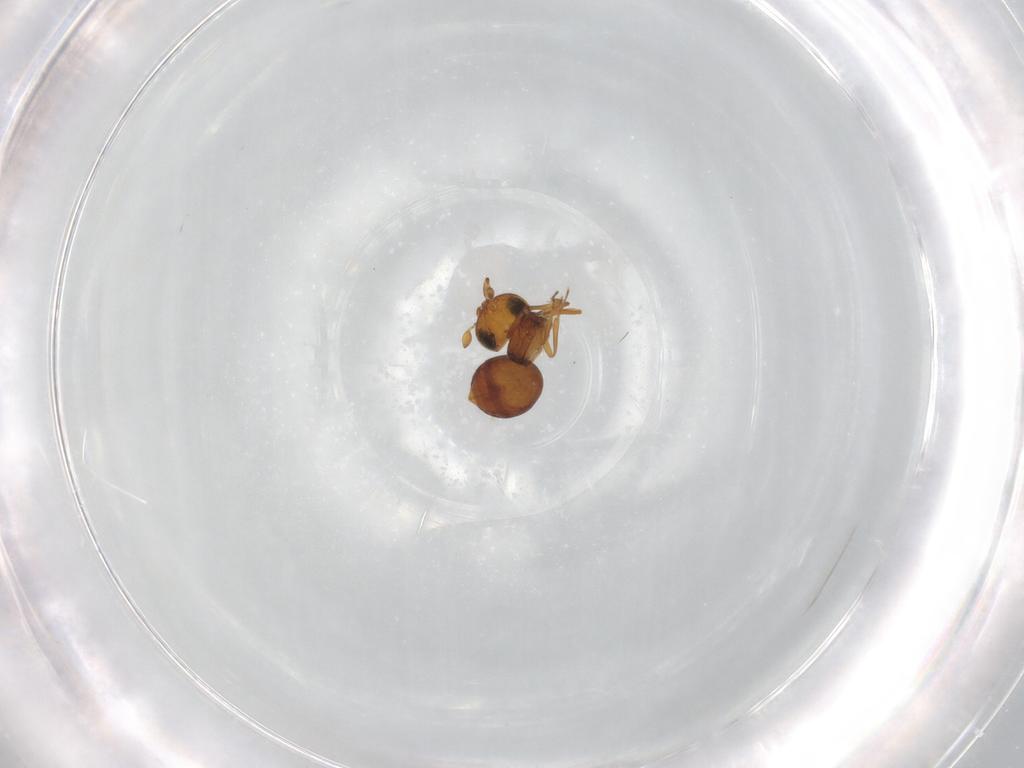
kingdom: Animalia
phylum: Arthropoda
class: Insecta
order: Hymenoptera
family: Scelionidae
